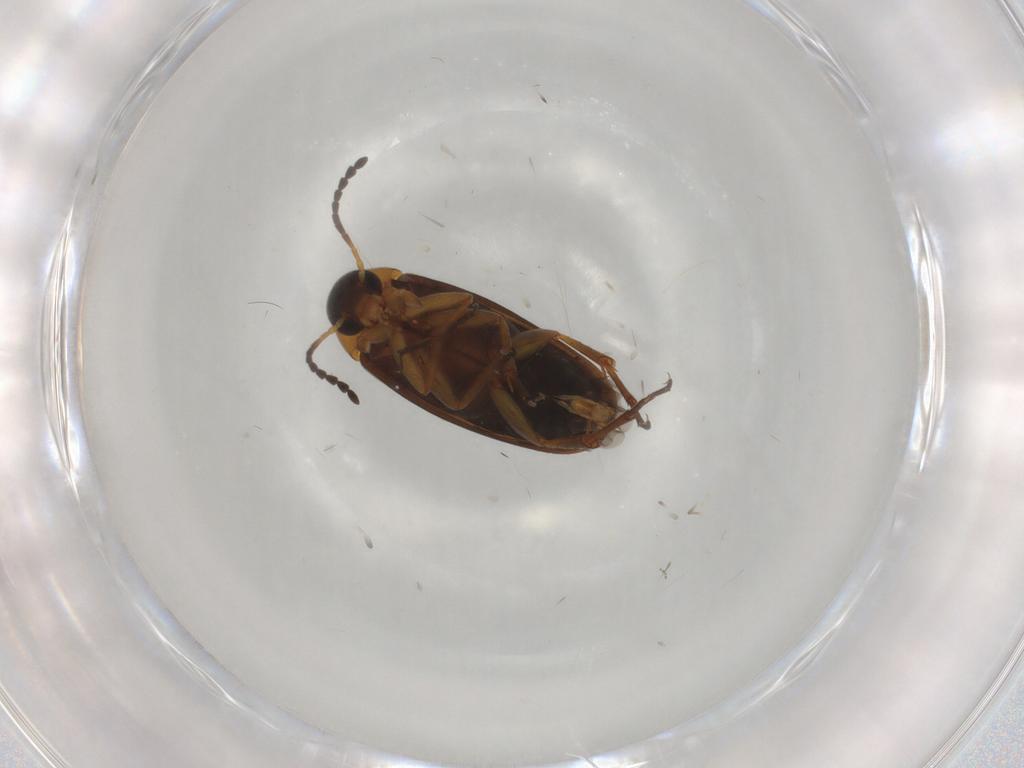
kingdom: Animalia
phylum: Arthropoda
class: Insecta
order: Coleoptera
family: Scraptiidae
